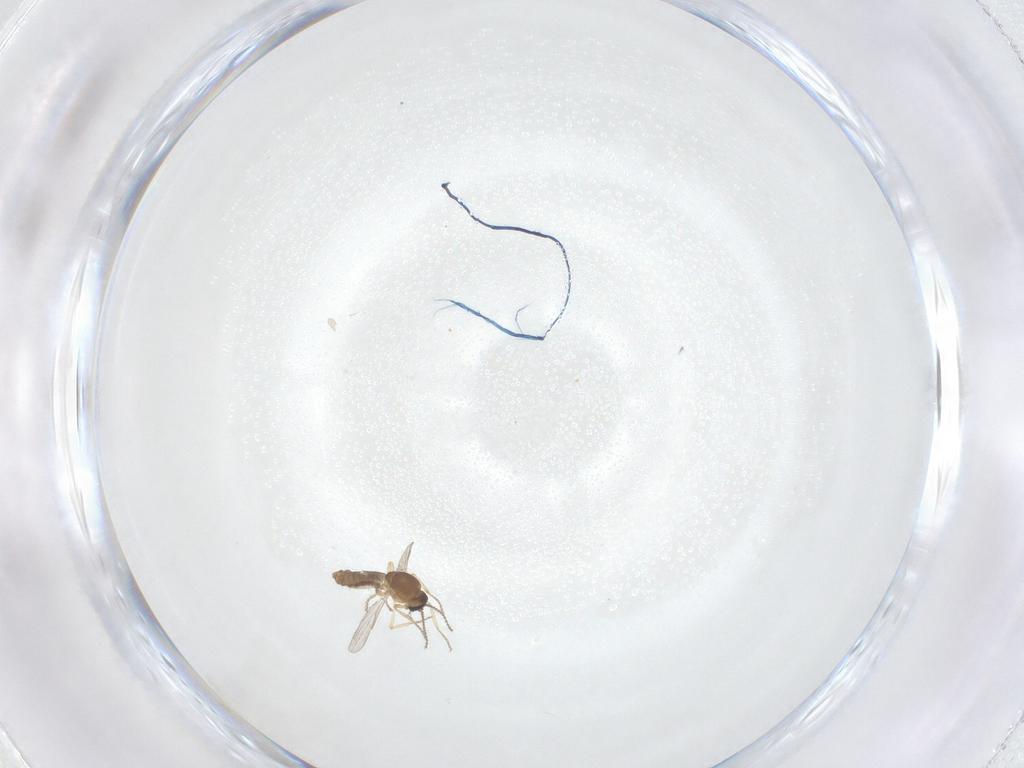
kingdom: Animalia
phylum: Arthropoda
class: Insecta
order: Diptera
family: Ceratopogonidae
